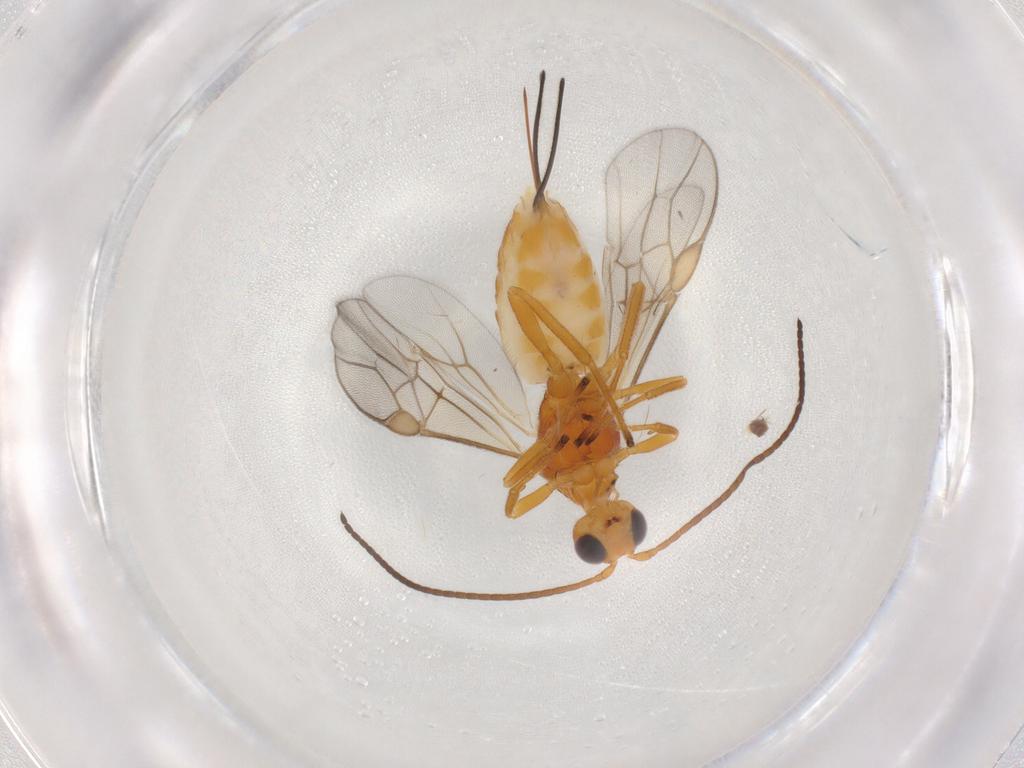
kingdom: Animalia
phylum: Arthropoda
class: Insecta
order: Hymenoptera
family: Braconidae
